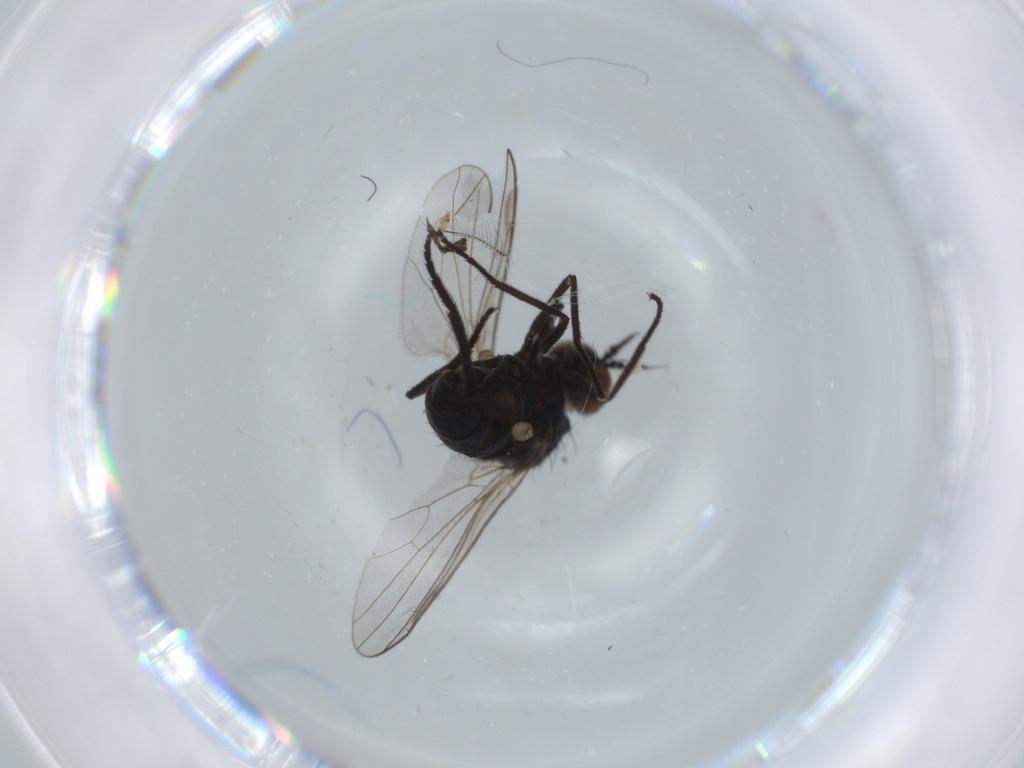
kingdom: Animalia
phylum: Arthropoda
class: Insecta
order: Diptera
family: Dolichopodidae
